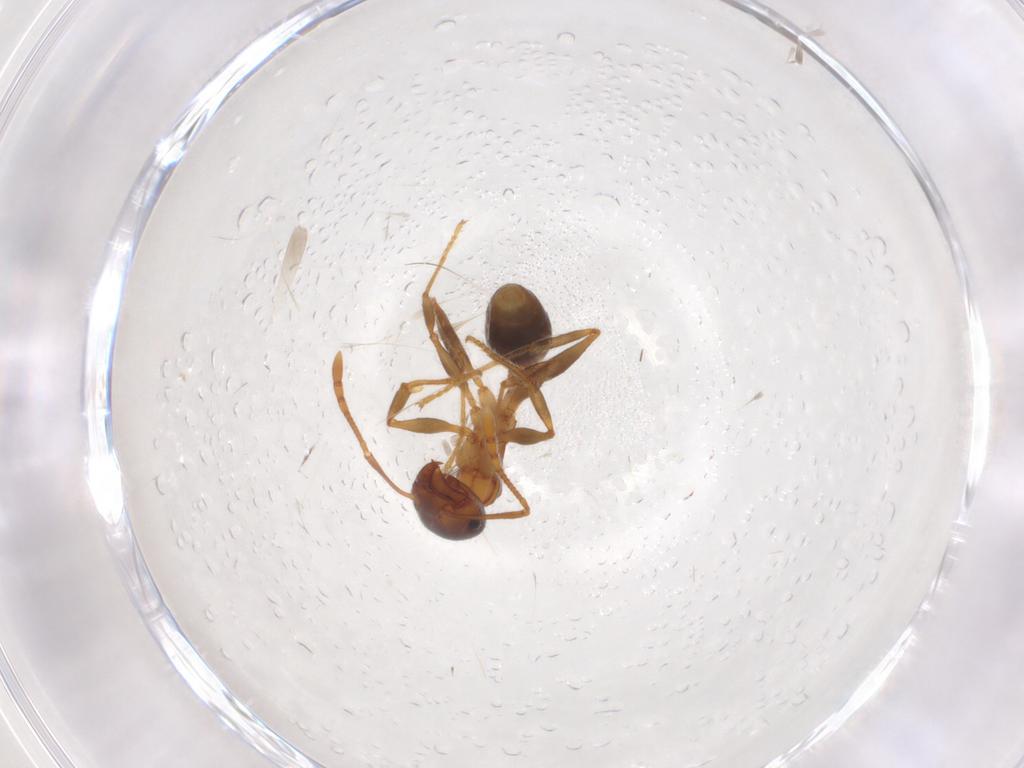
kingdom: Animalia
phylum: Arthropoda
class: Insecta
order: Hymenoptera
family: Formicidae
